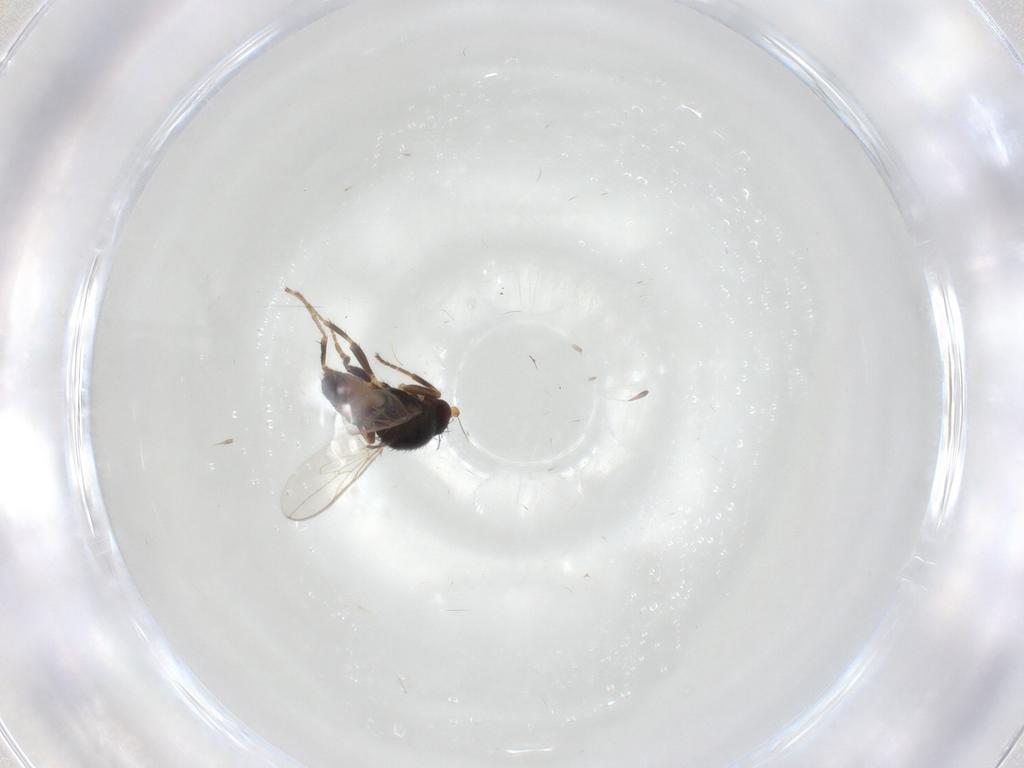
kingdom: Animalia
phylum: Arthropoda
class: Insecta
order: Diptera
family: Sphaeroceridae
